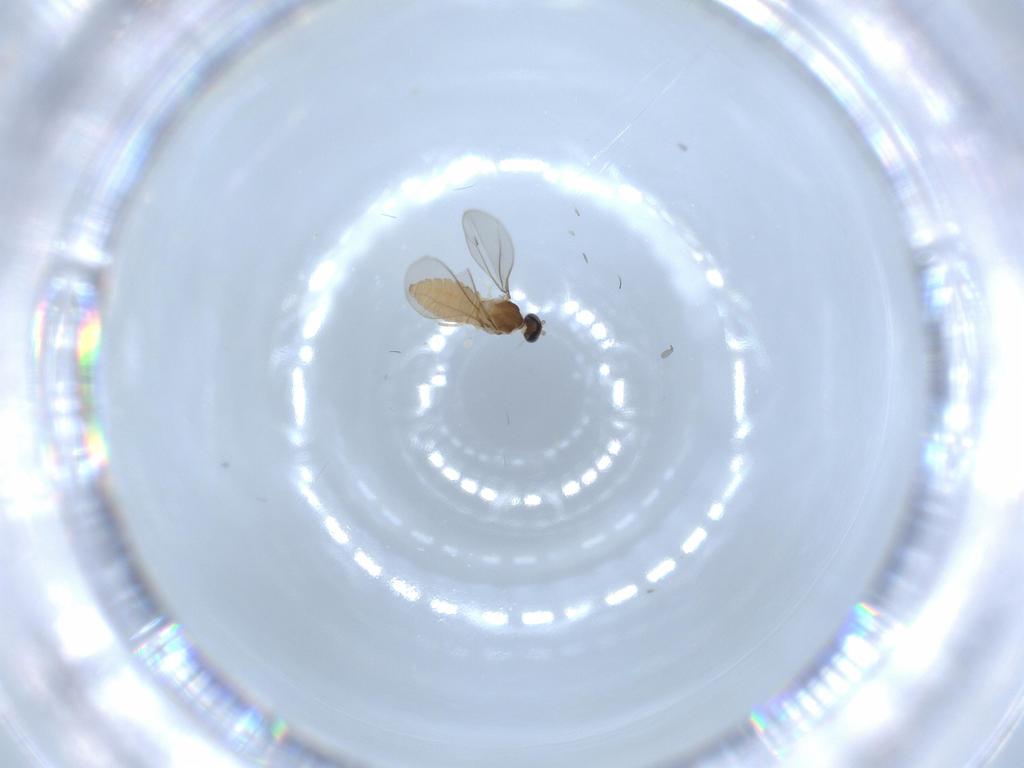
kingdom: Animalia
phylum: Arthropoda
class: Insecta
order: Diptera
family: Cecidomyiidae
